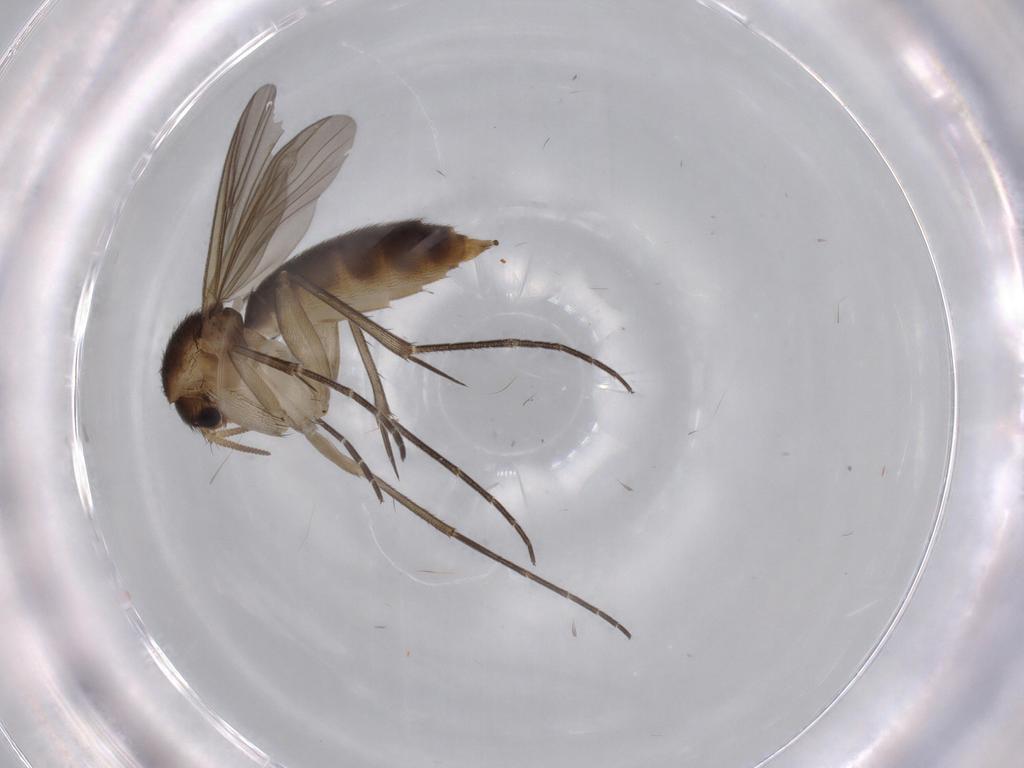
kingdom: Animalia
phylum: Arthropoda
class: Insecta
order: Diptera
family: Mycetophilidae
